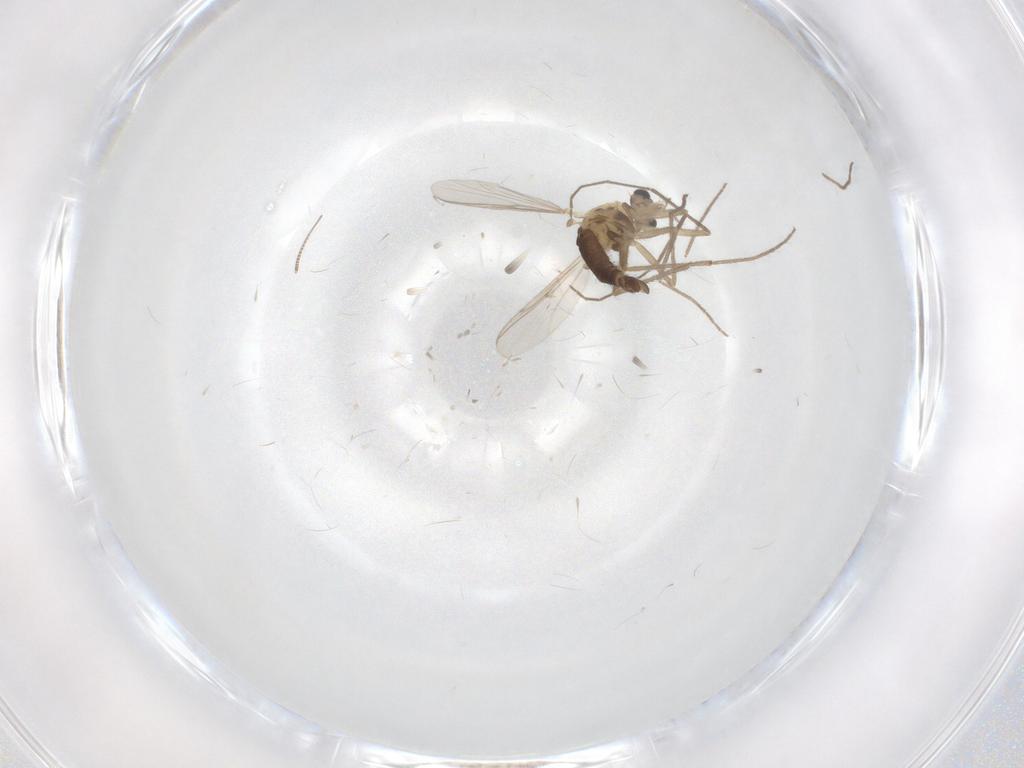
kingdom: Animalia
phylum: Arthropoda
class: Insecta
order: Diptera
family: Chironomidae
